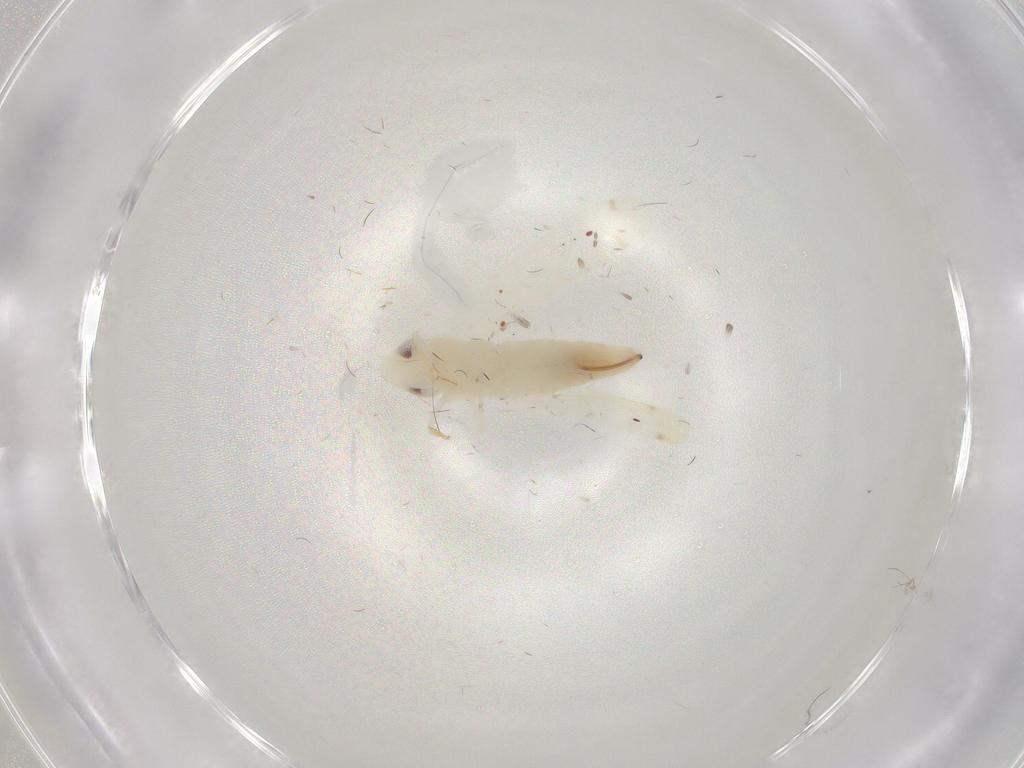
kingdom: Animalia
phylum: Arthropoda
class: Insecta
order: Hemiptera
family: Cicadellidae
